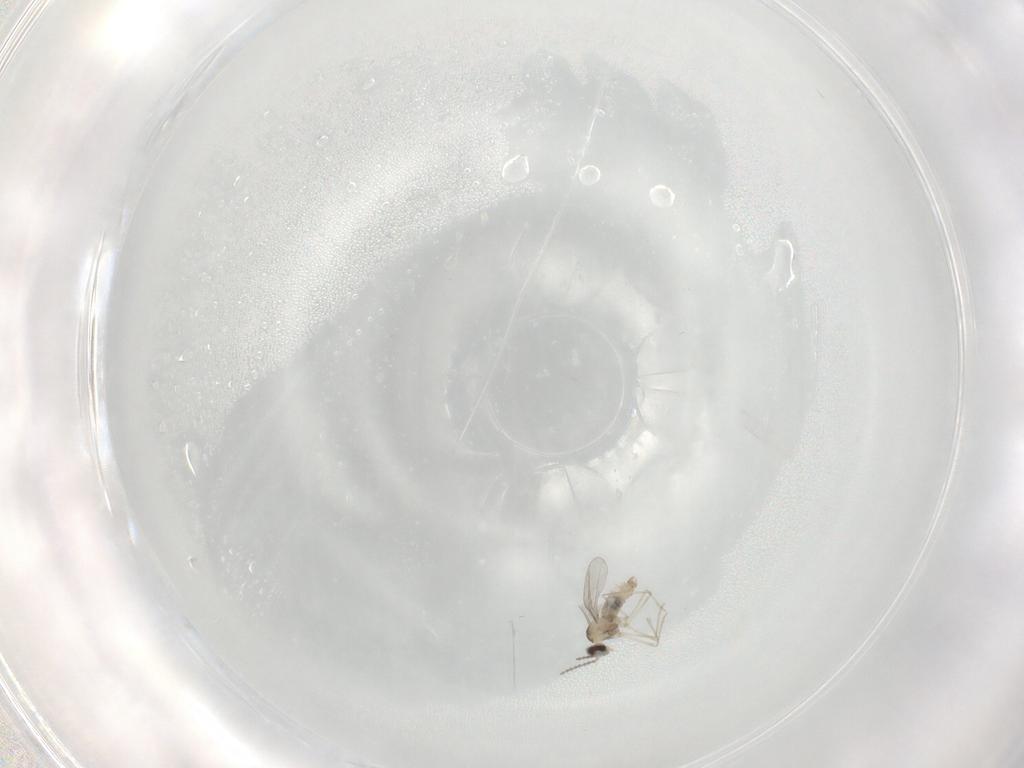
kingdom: Animalia
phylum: Arthropoda
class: Insecta
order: Diptera
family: Cecidomyiidae
